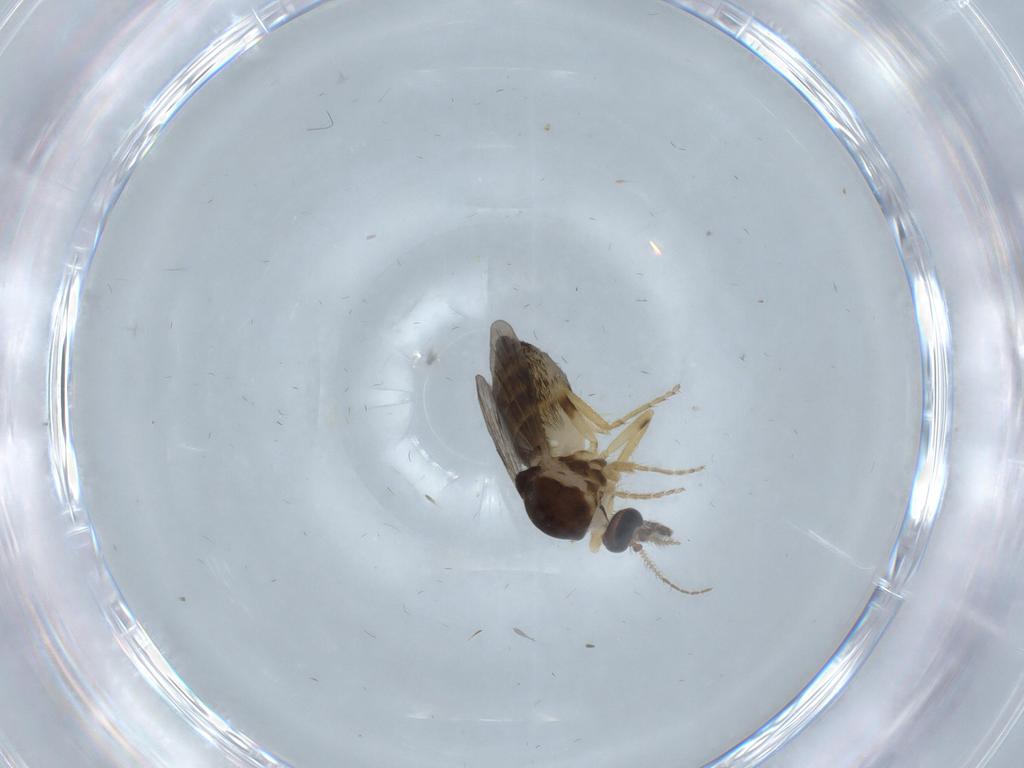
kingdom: Animalia
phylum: Arthropoda
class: Insecta
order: Diptera
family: Ceratopogonidae
